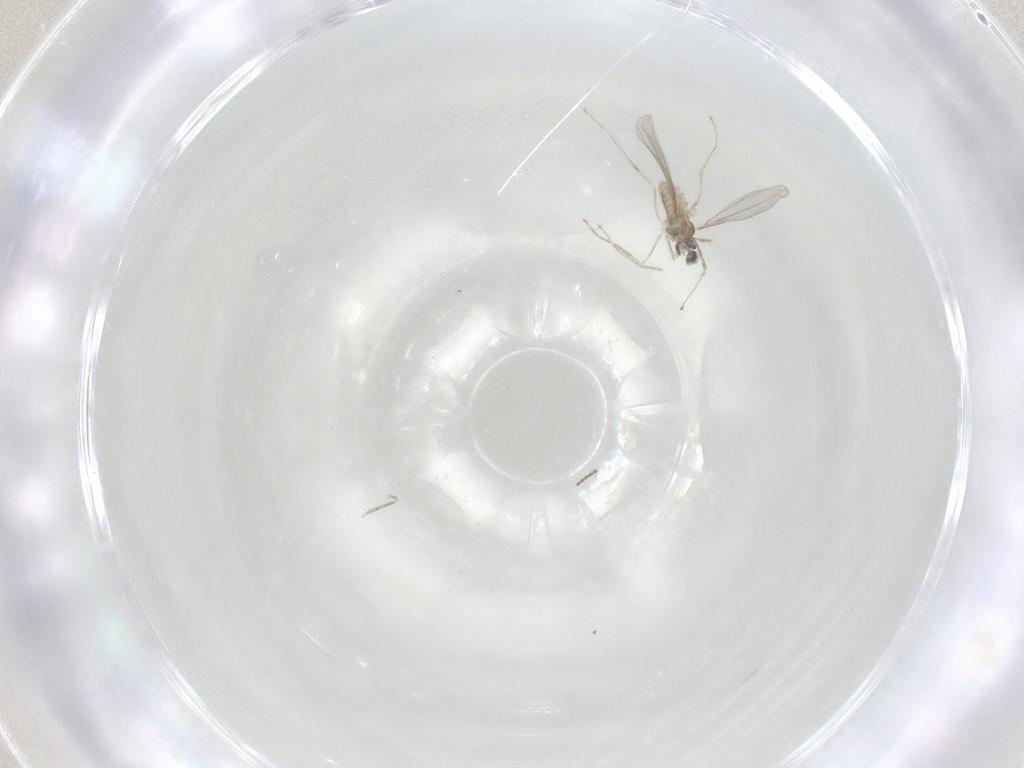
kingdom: Animalia
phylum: Arthropoda
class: Insecta
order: Diptera
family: Cecidomyiidae
